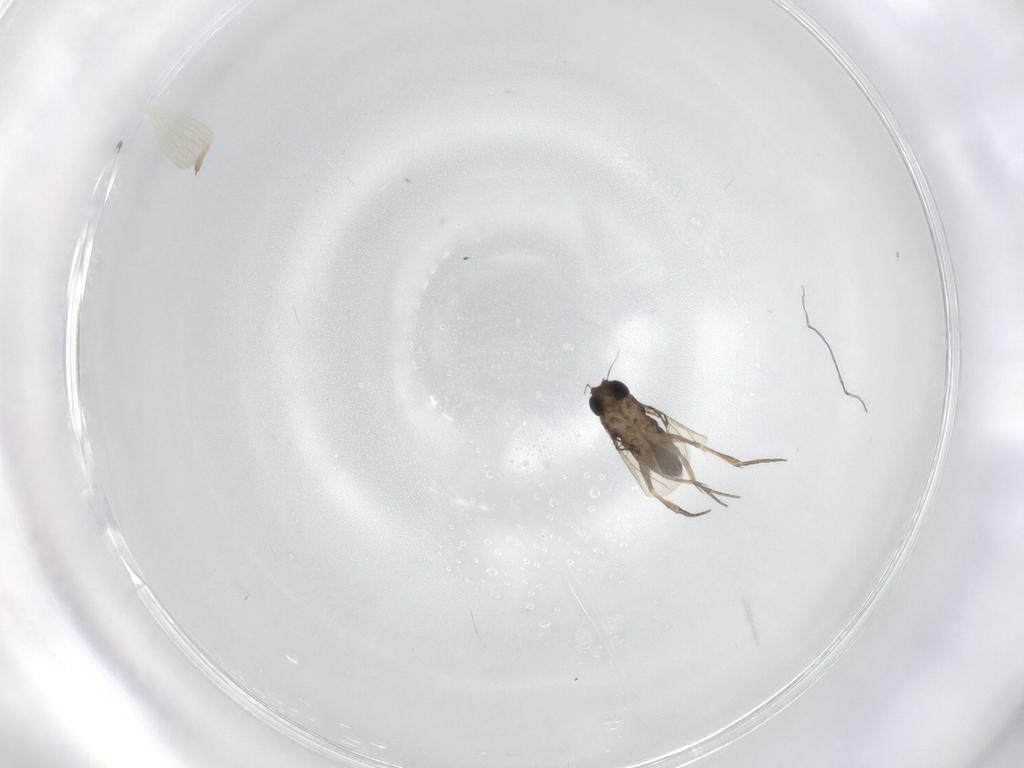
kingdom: Animalia
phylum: Arthropoda
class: Insecta
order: Diptera
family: Phoridae
